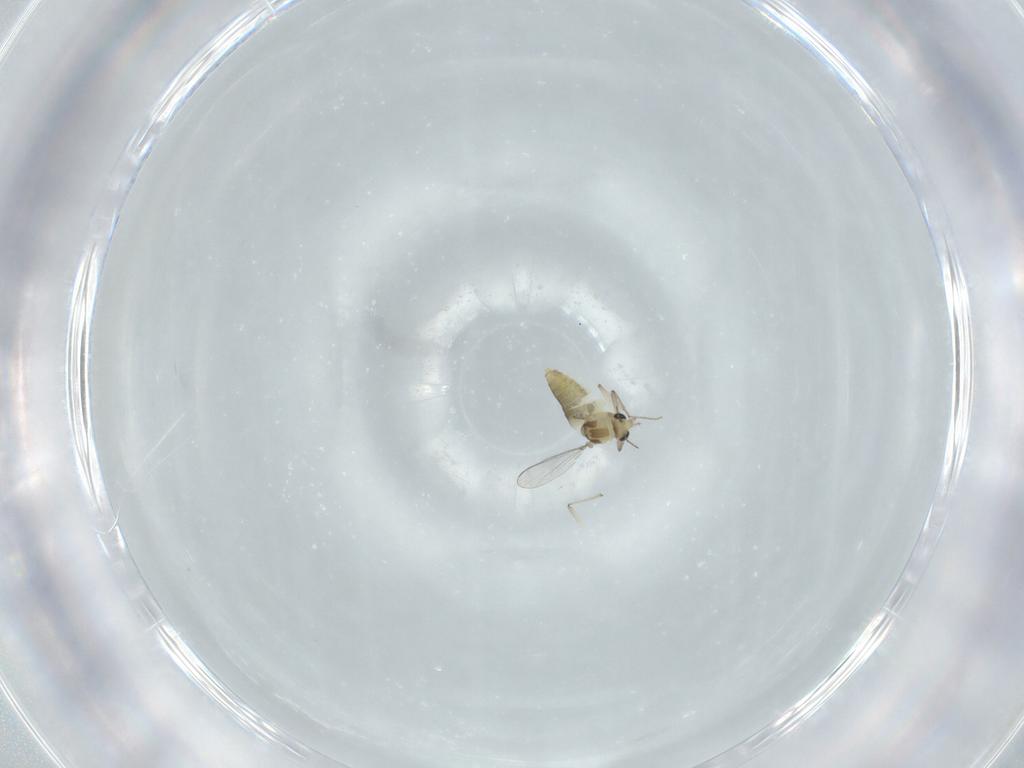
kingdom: Animalia
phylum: Arthropoda
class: Insecta
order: Diptera
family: Chironomidae
